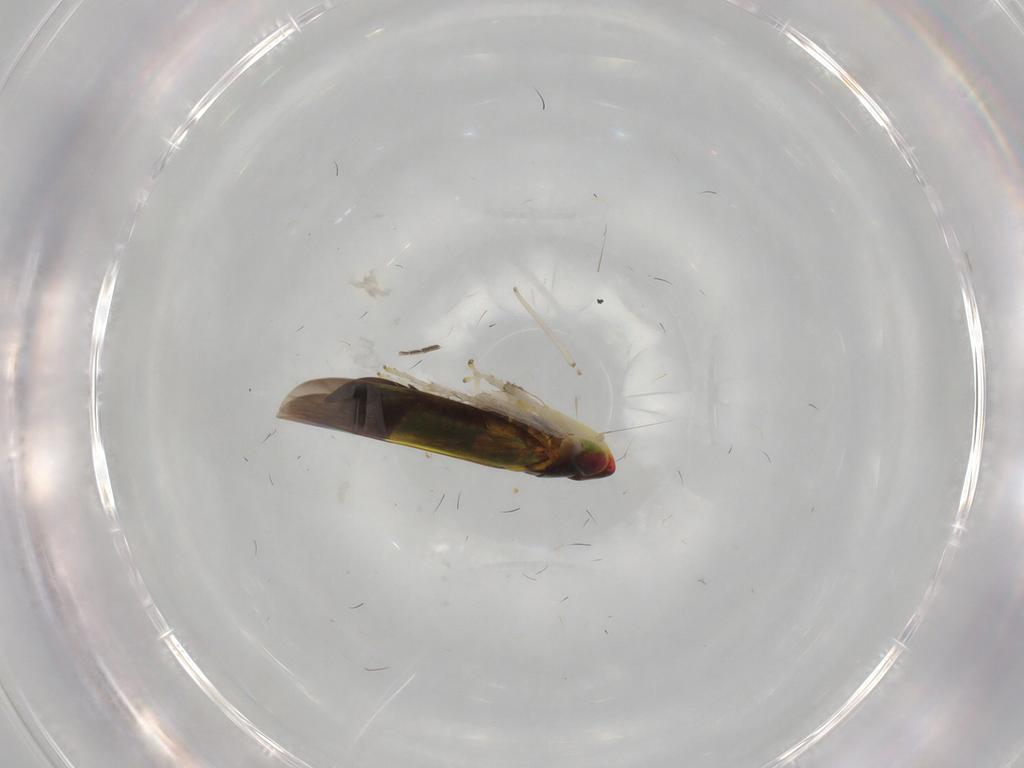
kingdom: Animalia
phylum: Arthropoda
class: Insecta
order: Hemiptera
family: Cicadellidae
